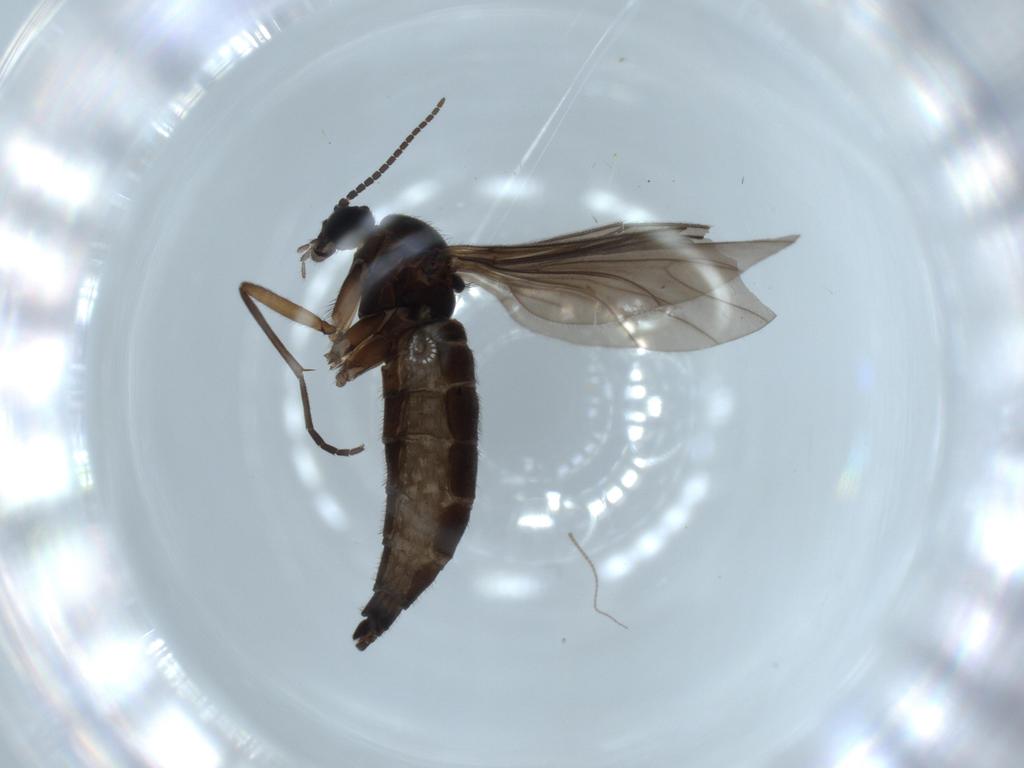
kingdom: Animalia
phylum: Arthropoda
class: Insecta
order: Diptera
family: Sciaridae
